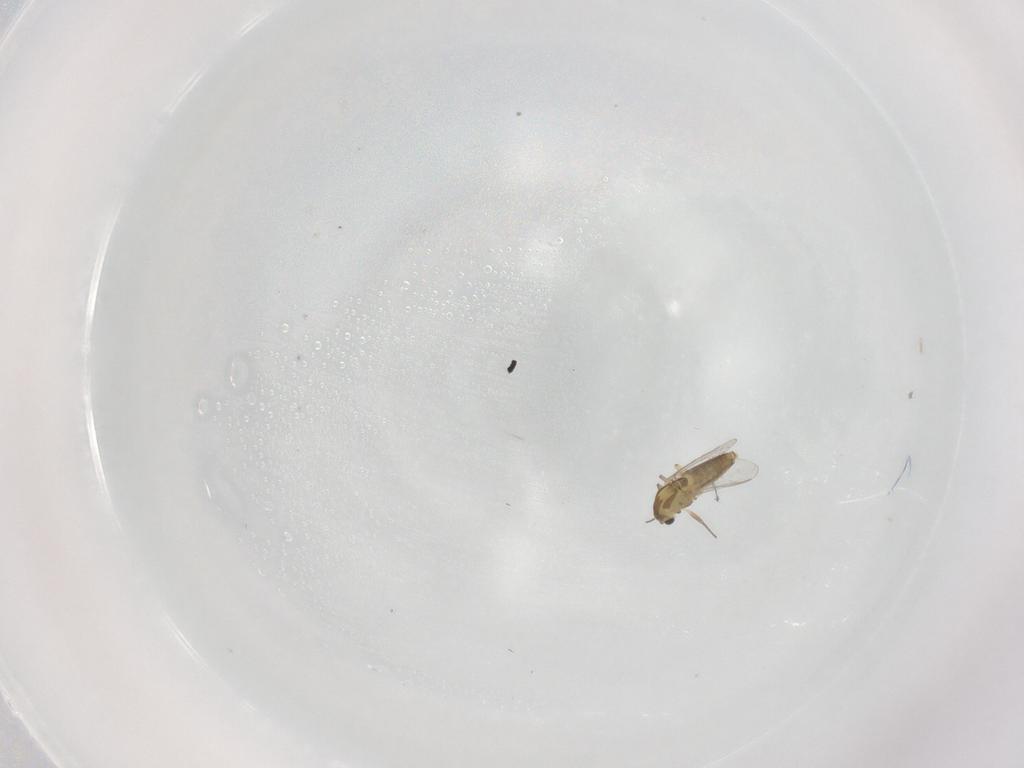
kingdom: Animalia
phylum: Arthropoda
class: Insecta
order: Diptera
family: Chironomidae
